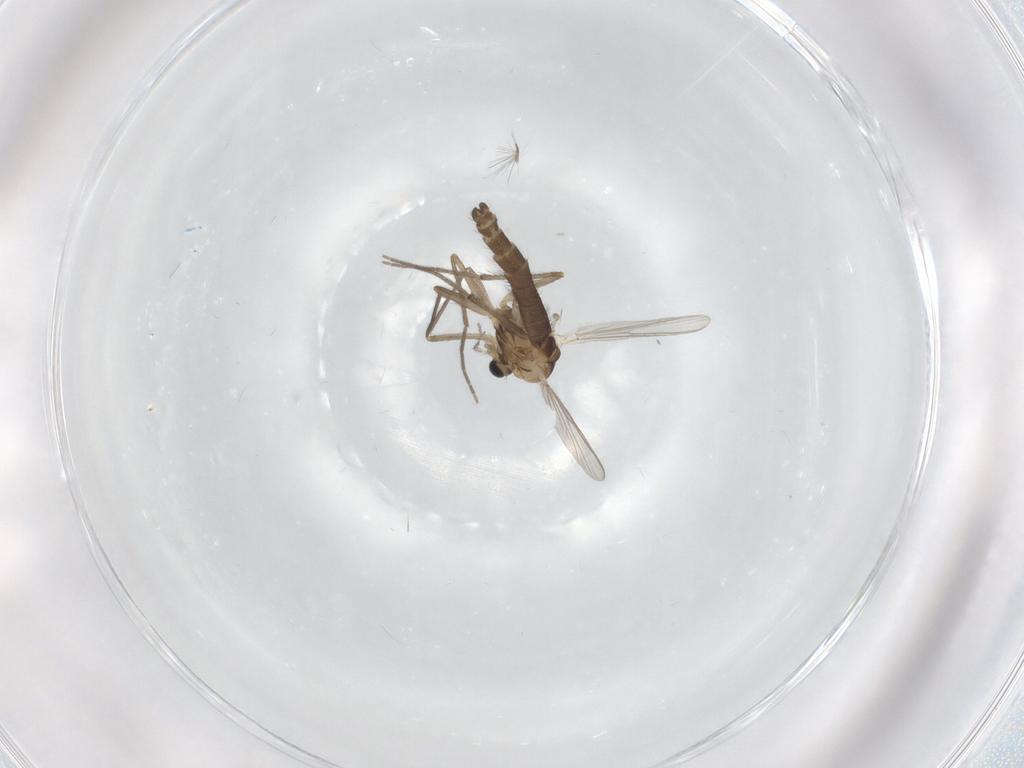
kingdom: Animalia
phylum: Arthropoda
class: Insecta
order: Diptera
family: Chironomidae
